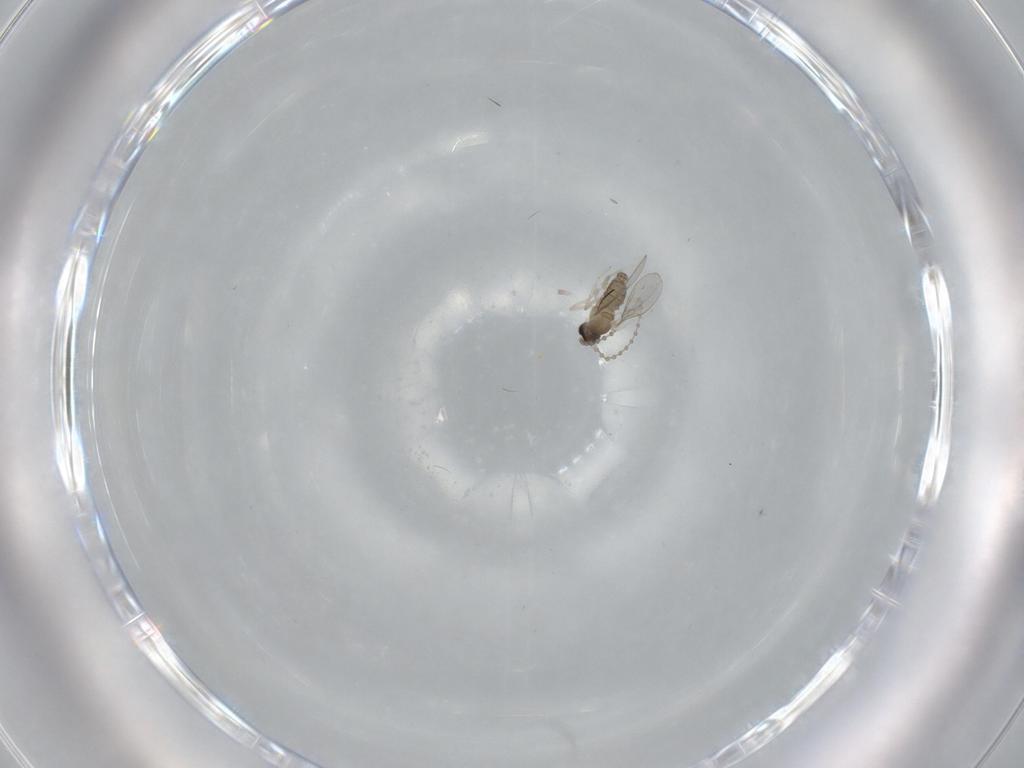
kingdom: Animalia
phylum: Arthropoda
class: Insecta
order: Diptera
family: Cecidomyiidae
